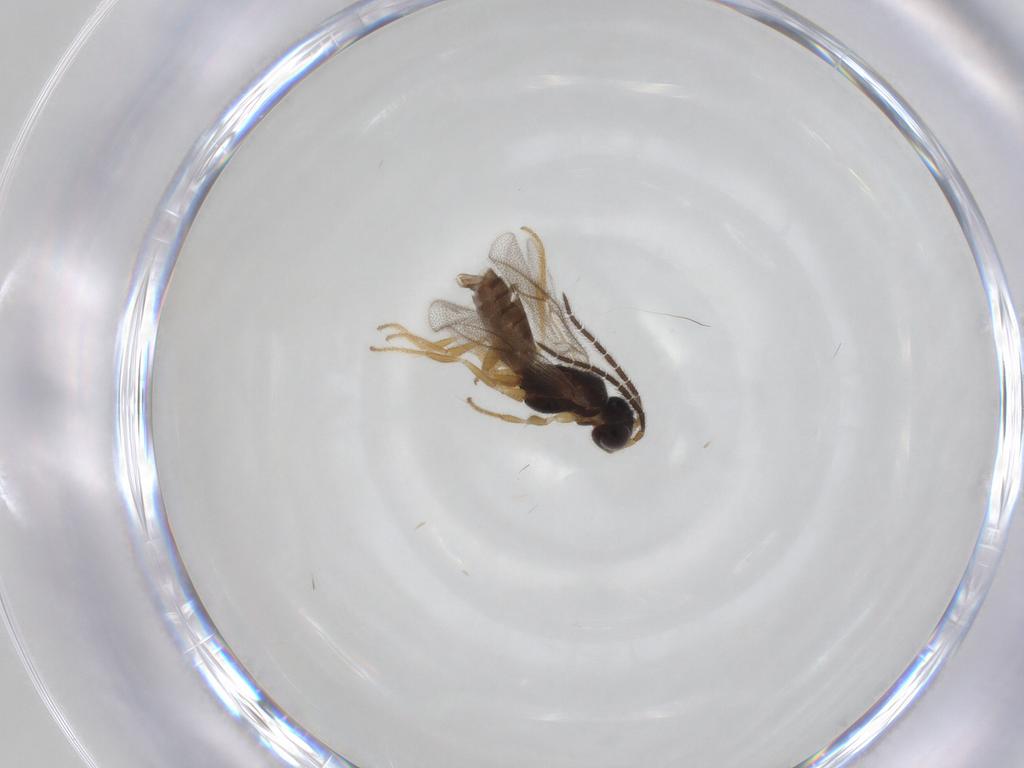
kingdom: Animalia
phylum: Arthropoda
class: Insecta
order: Hymenoptera
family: Dryinidae
